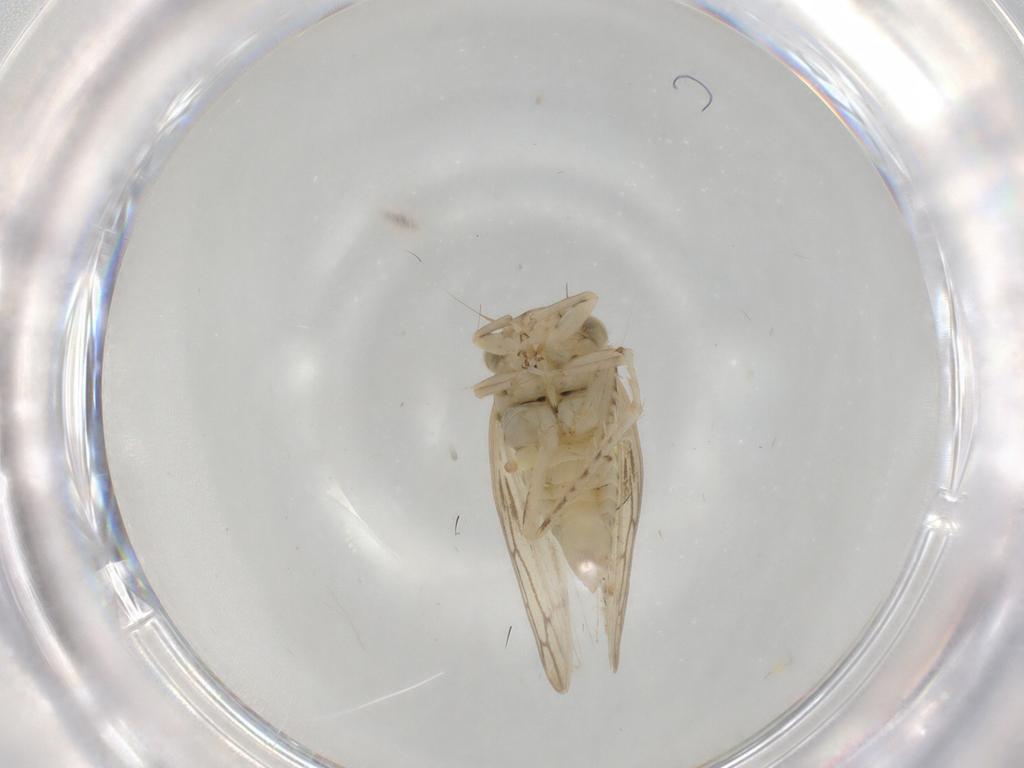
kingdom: Animalia
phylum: Arthropoda
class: Insecta
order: Hemiptera
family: Cicadellidae
